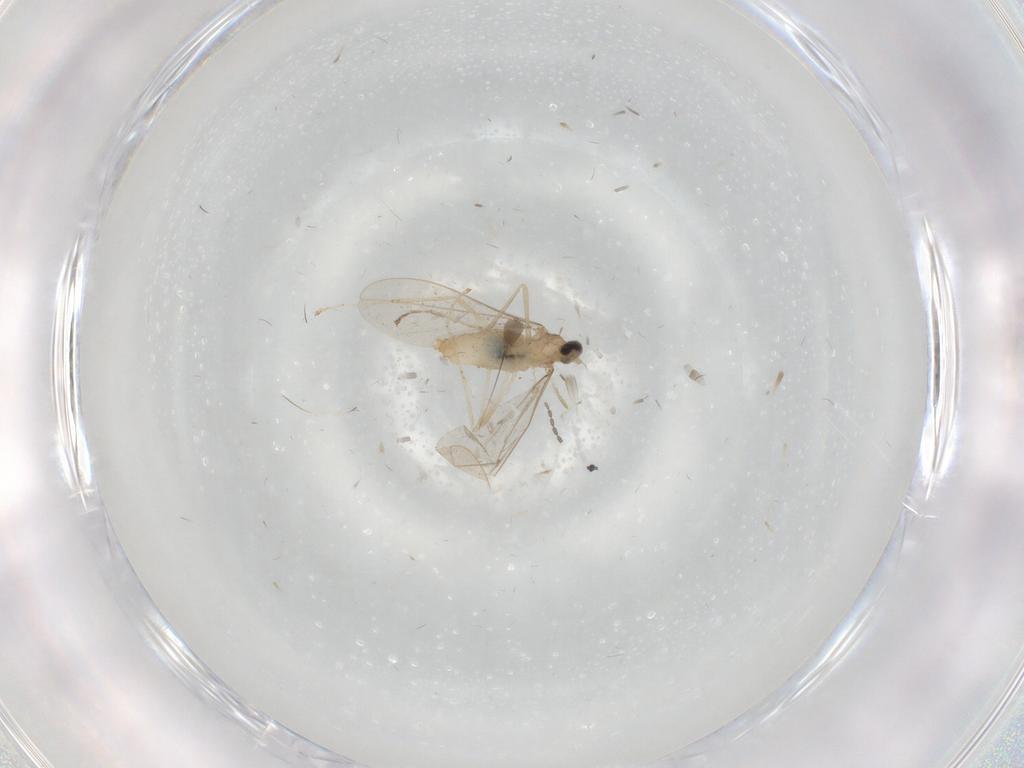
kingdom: Animalia
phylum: Arthropoda
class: Insecta
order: Diptera
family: Cecidomyiidae
